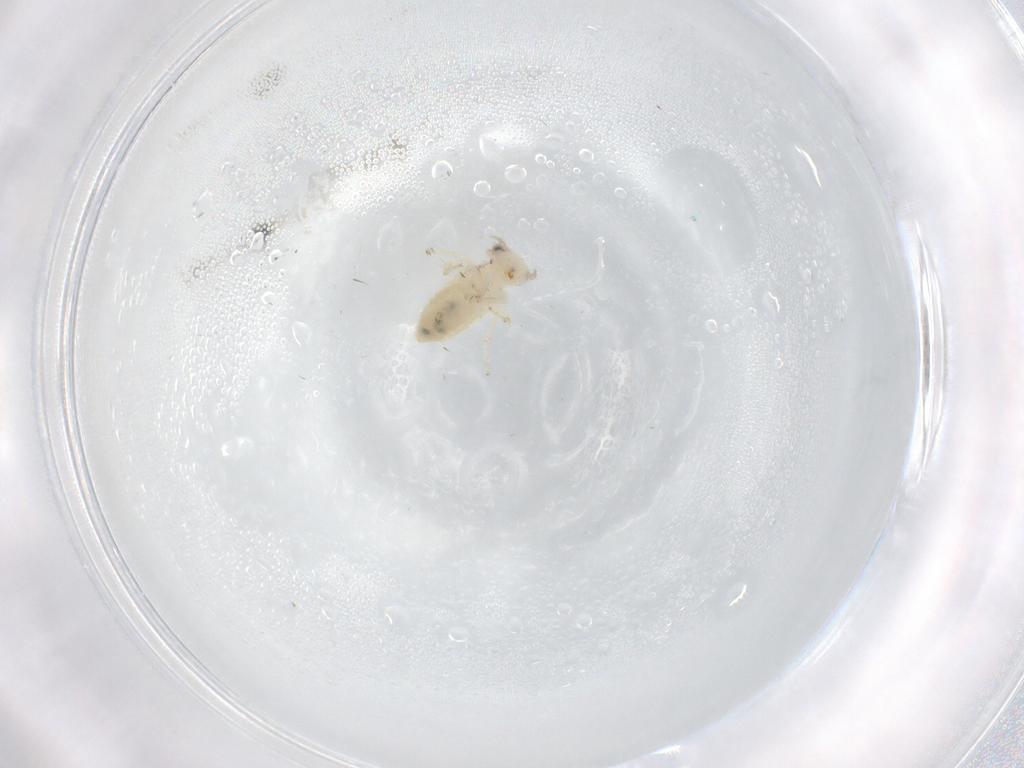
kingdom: Animalia
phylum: Arthropoda
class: Insecta
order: Psocodea
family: Lepidopsocidae
